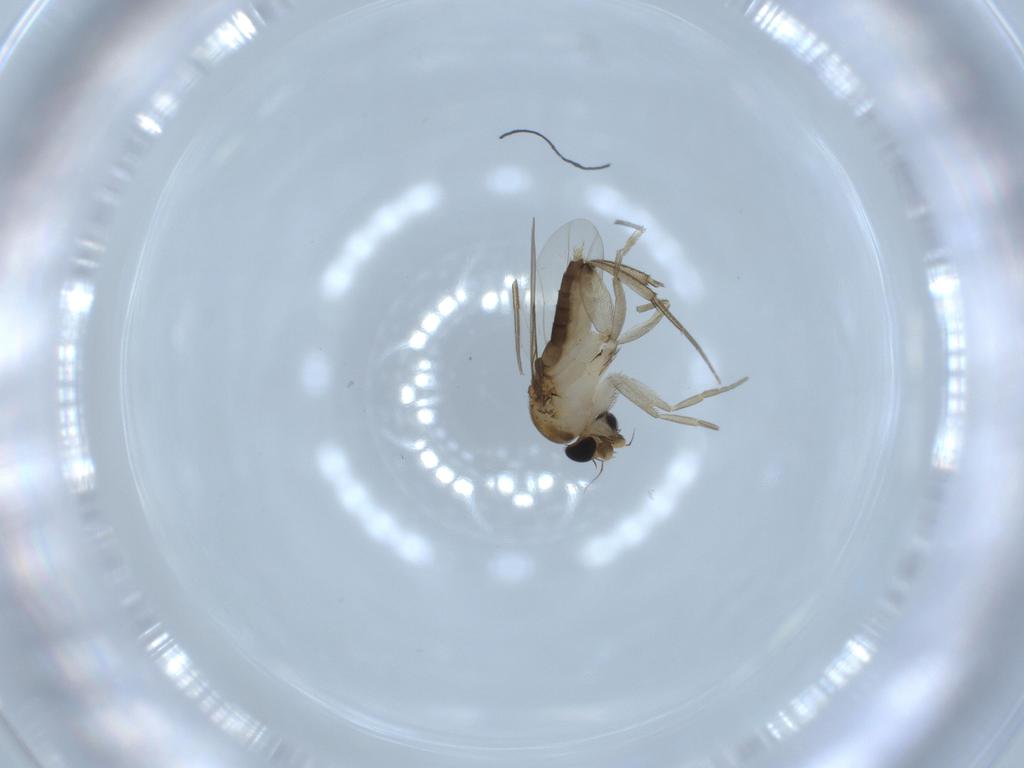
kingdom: Animalia
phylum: Arthropoda
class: Insecta
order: Diptera
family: Phoridae
